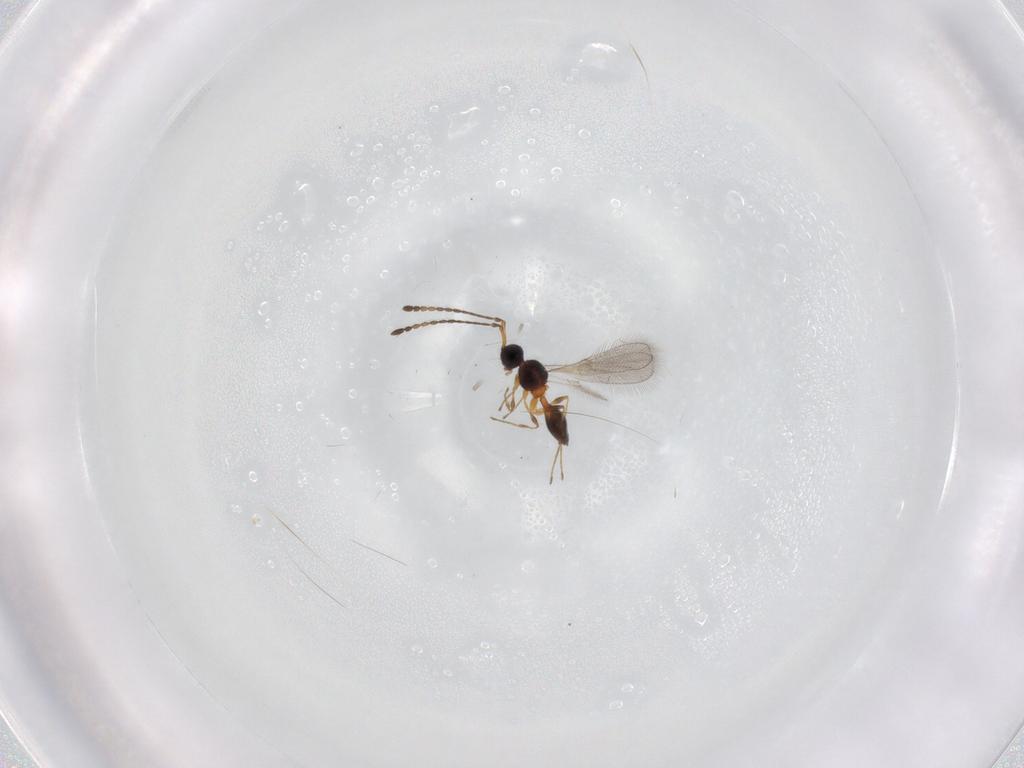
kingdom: Animalia
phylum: Arthropoda
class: Insecta
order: Hymenoptera
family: Diapriidae
